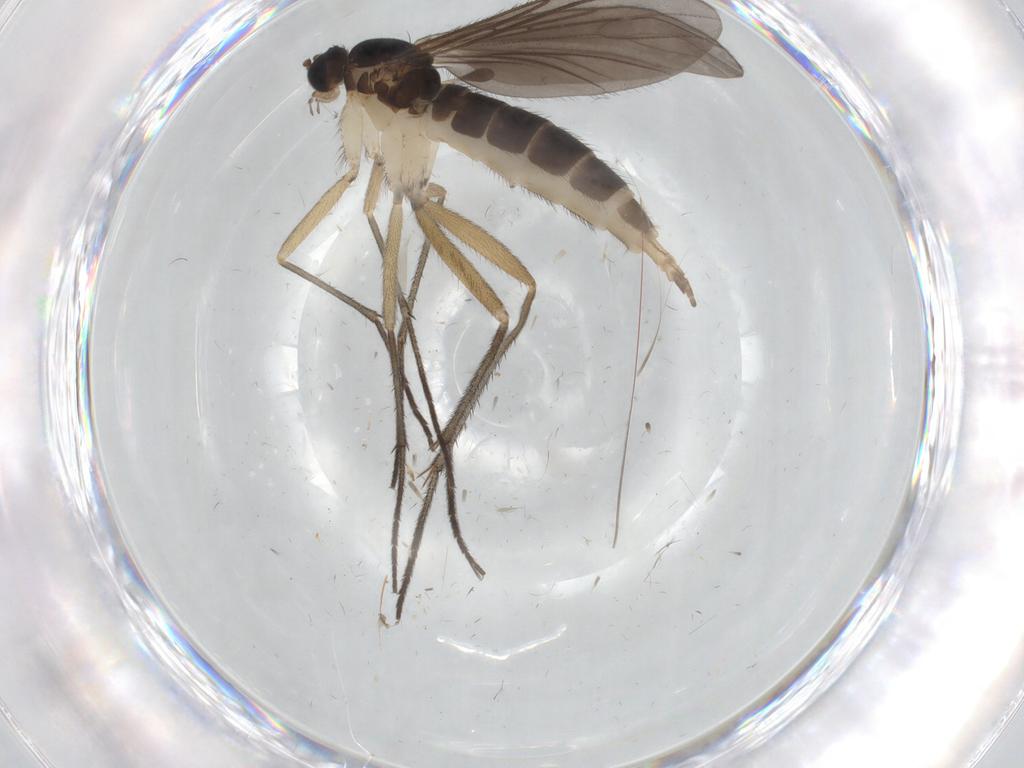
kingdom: Animalia
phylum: Arthropoda
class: Insecta
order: Diptera
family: Sciaridae
